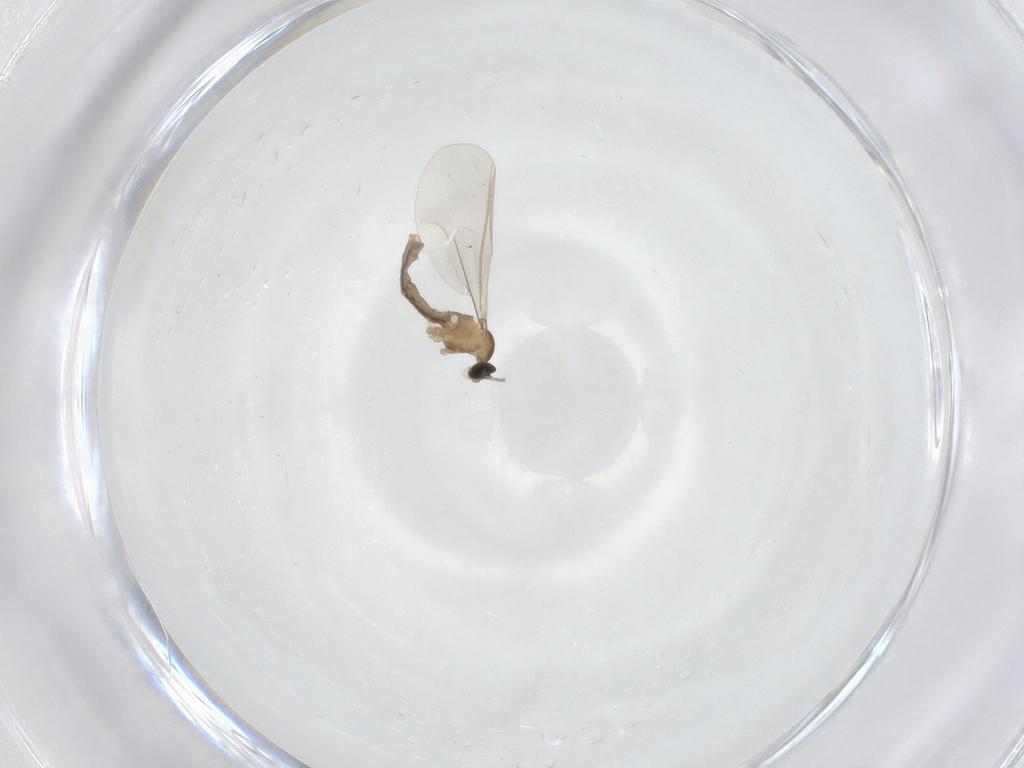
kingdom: Animalia
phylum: Arthropoda
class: Insecta
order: Diptera
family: Cecidomyiidae
